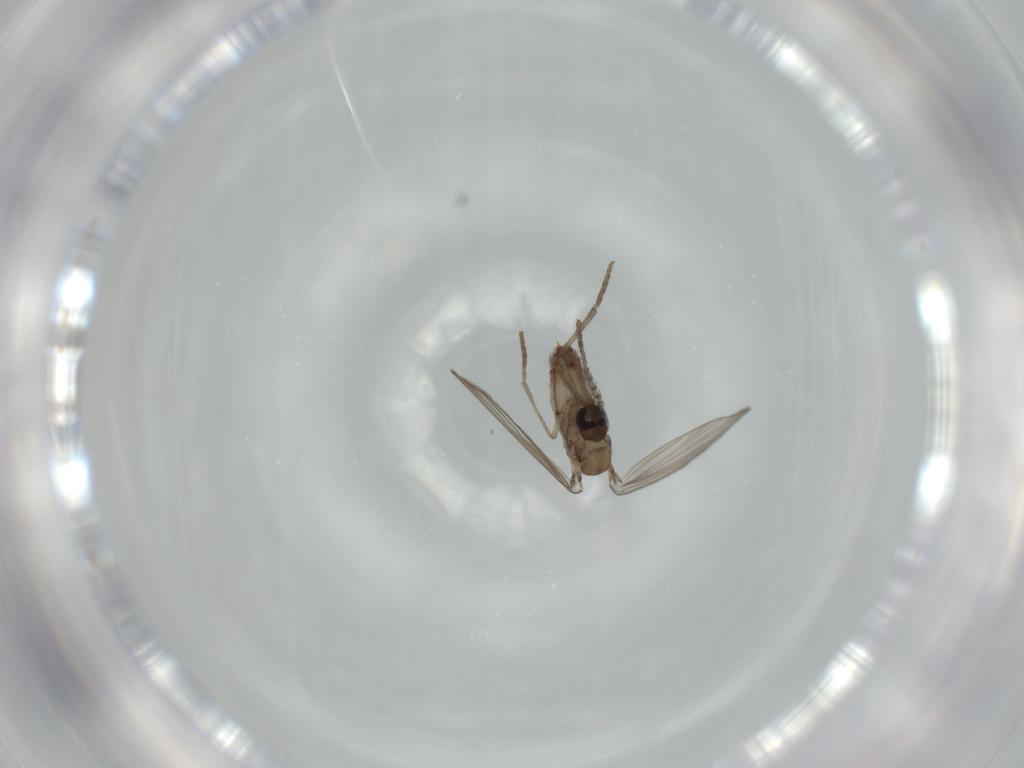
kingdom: Animalia
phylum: Arthropoda
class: Insecta
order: Diptera
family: Psychodidae
